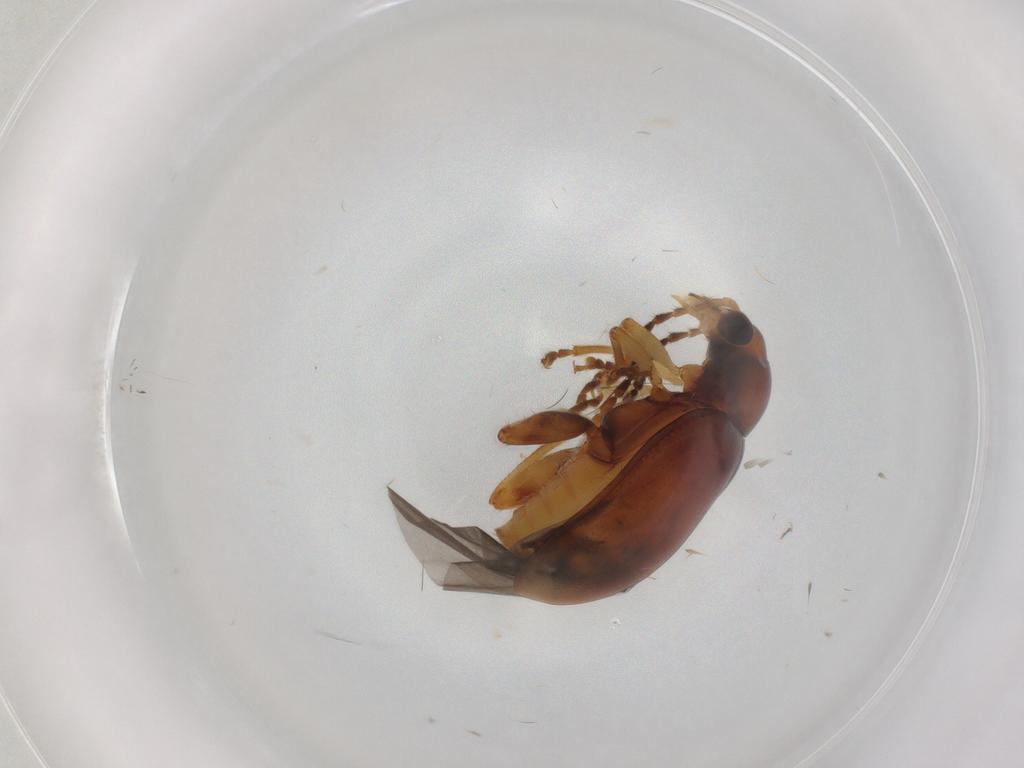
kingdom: Animalia
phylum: Arthropoda
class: Insecta
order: Coleoptera
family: Chrysomelidae
